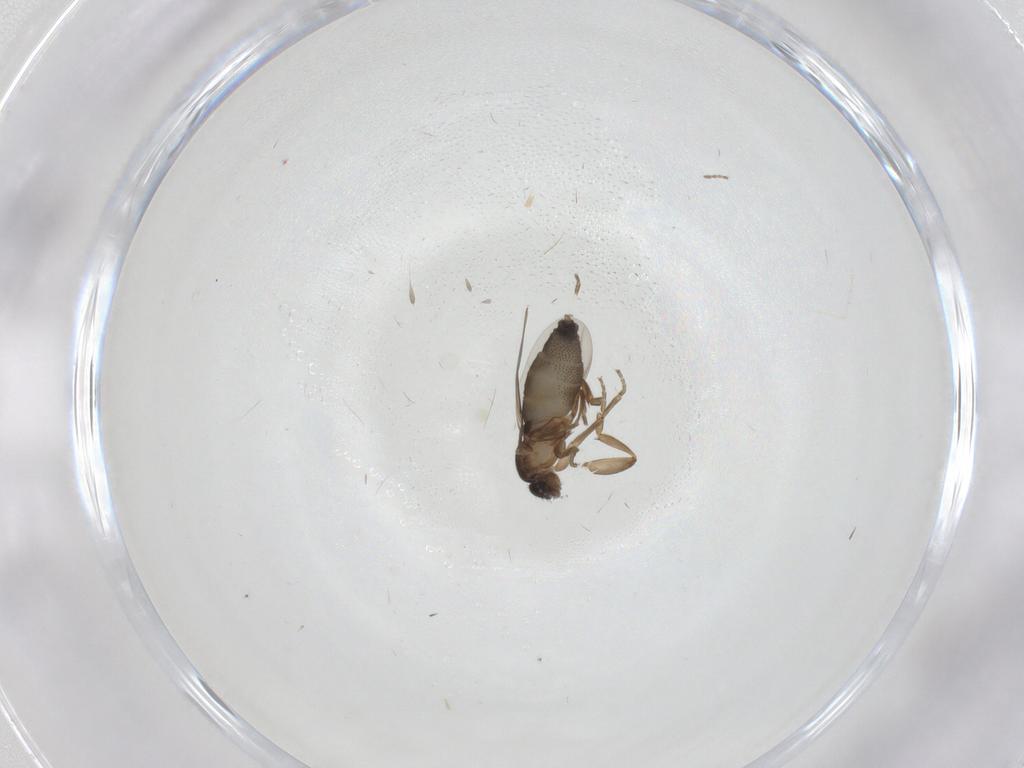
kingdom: Animalia
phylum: Arthropoda
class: Insecta
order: Diptera
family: Phoridae
